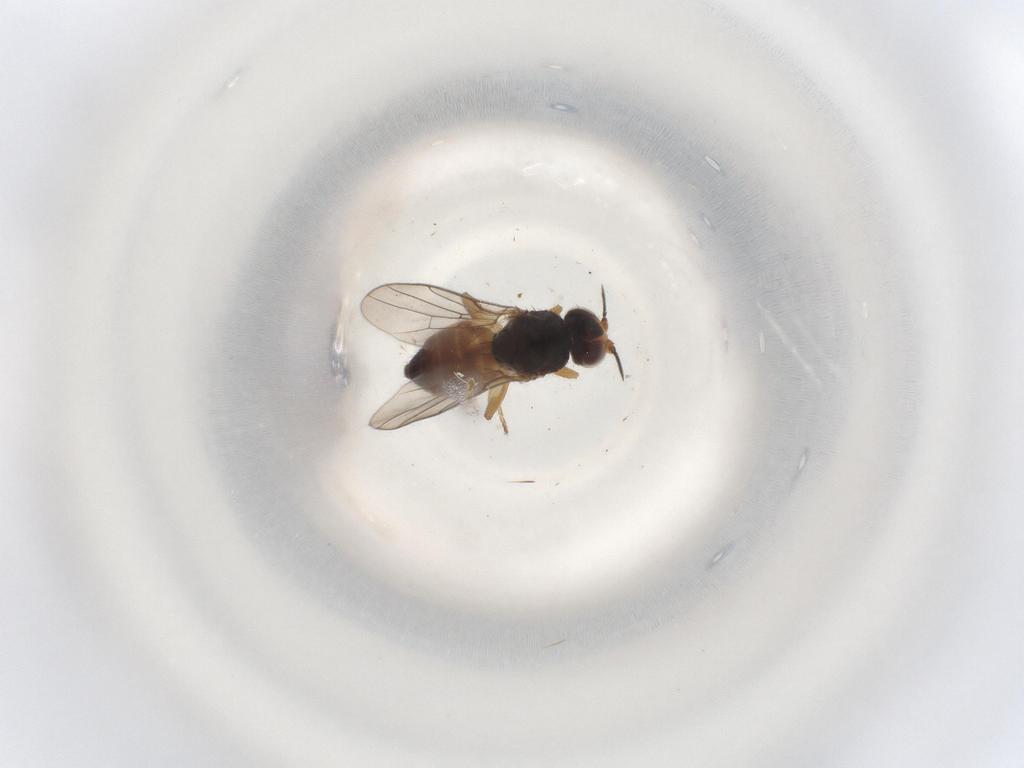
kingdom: Animalia
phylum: Arthropoda
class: Insecta
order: Diptera
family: Chloropidae
